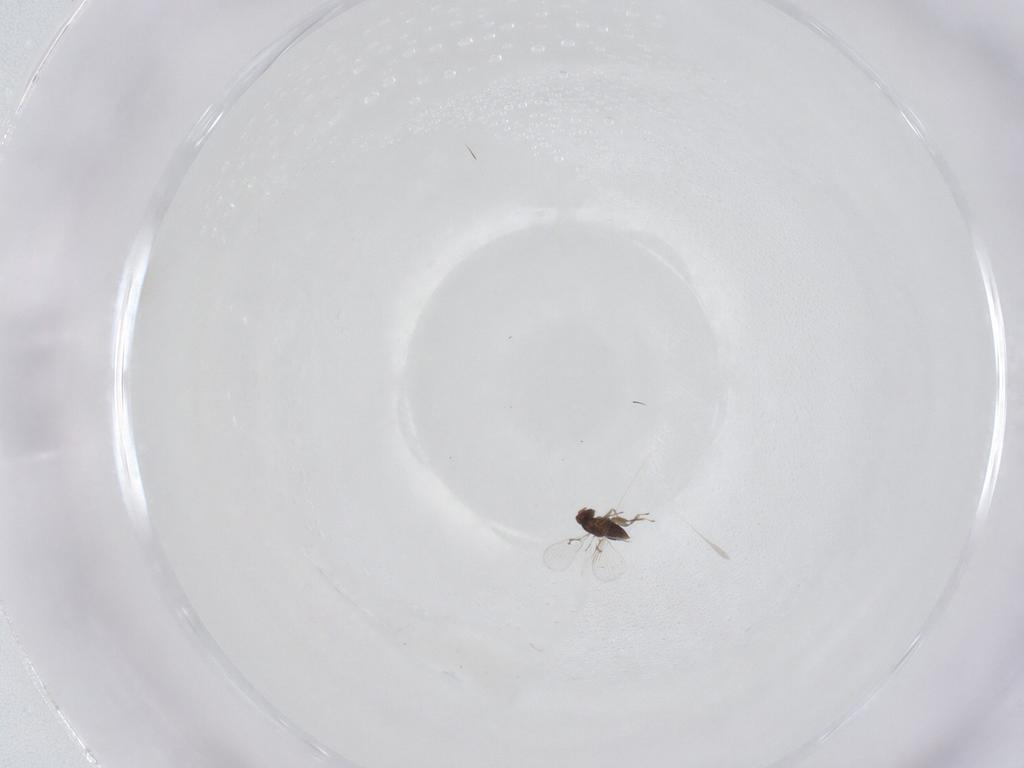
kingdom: Animalia
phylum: Arthropoda
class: Insecta
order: Hymenoptera
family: Trichogrammatidae
